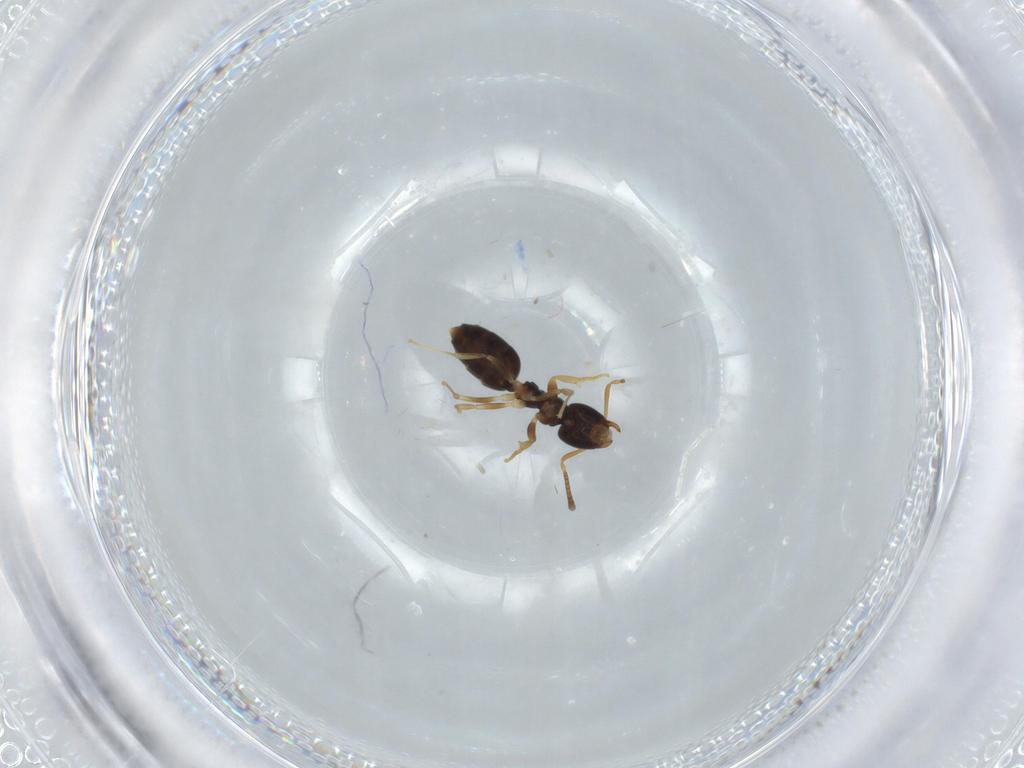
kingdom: Animalia
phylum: Arthropoda
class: Insecta
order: Hymenoptera
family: Formicidae
